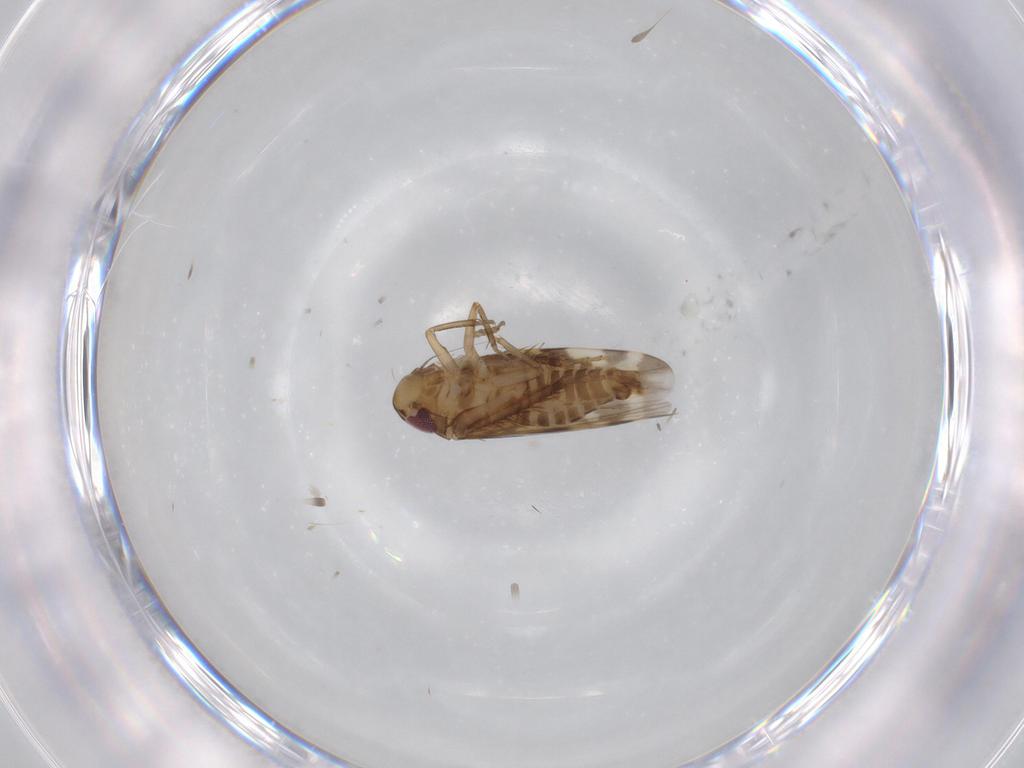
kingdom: Animalia
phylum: Arthropoda
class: Insecta
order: Hemiptera
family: Cicadellidae
